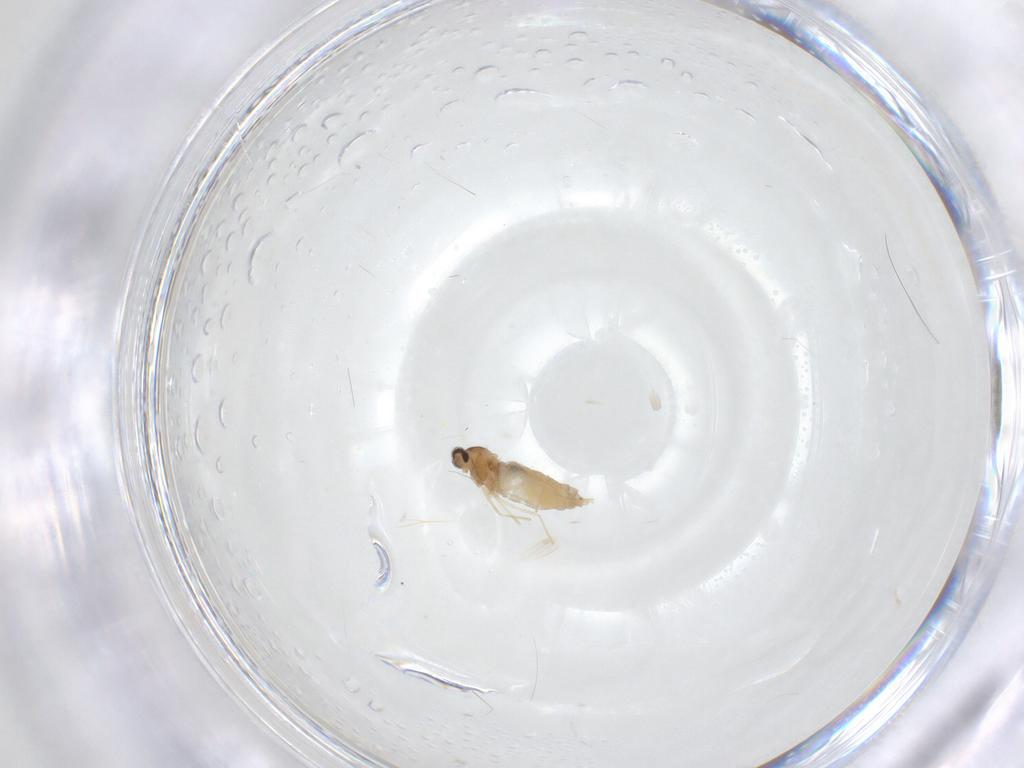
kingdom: Animalia
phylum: Arthropoda
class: Insecta
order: Diptera
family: Cecidomyiidae
